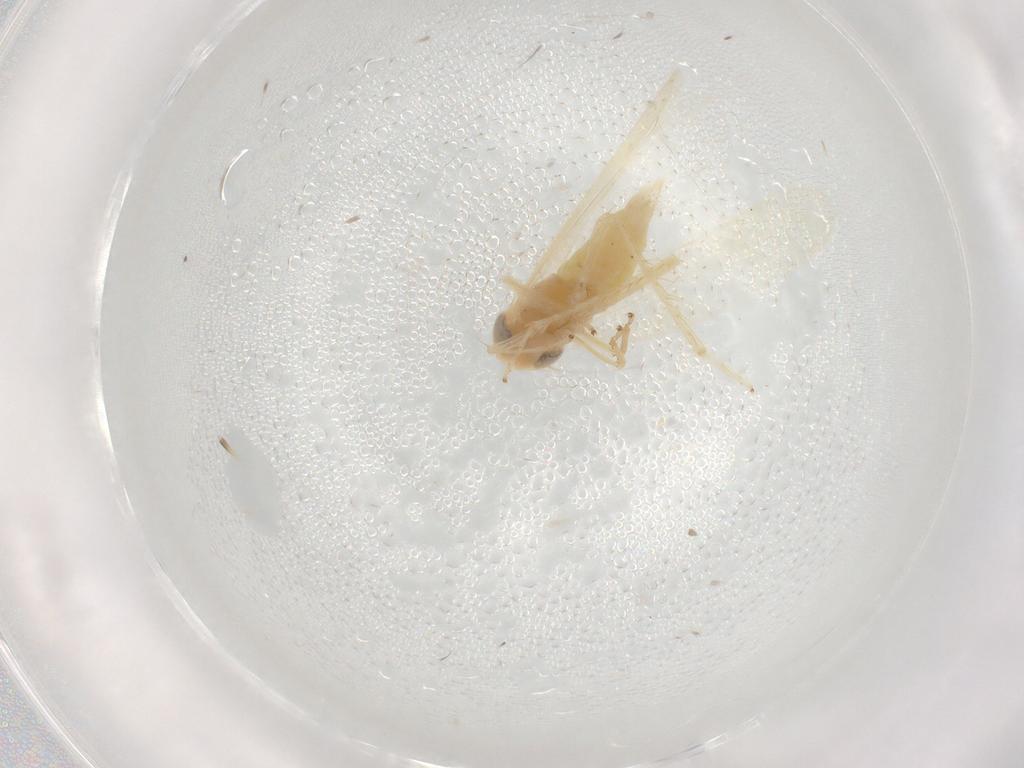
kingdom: Animalia
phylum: Arthropoda
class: Insecta
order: Hemiptera
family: Cicadellidae
